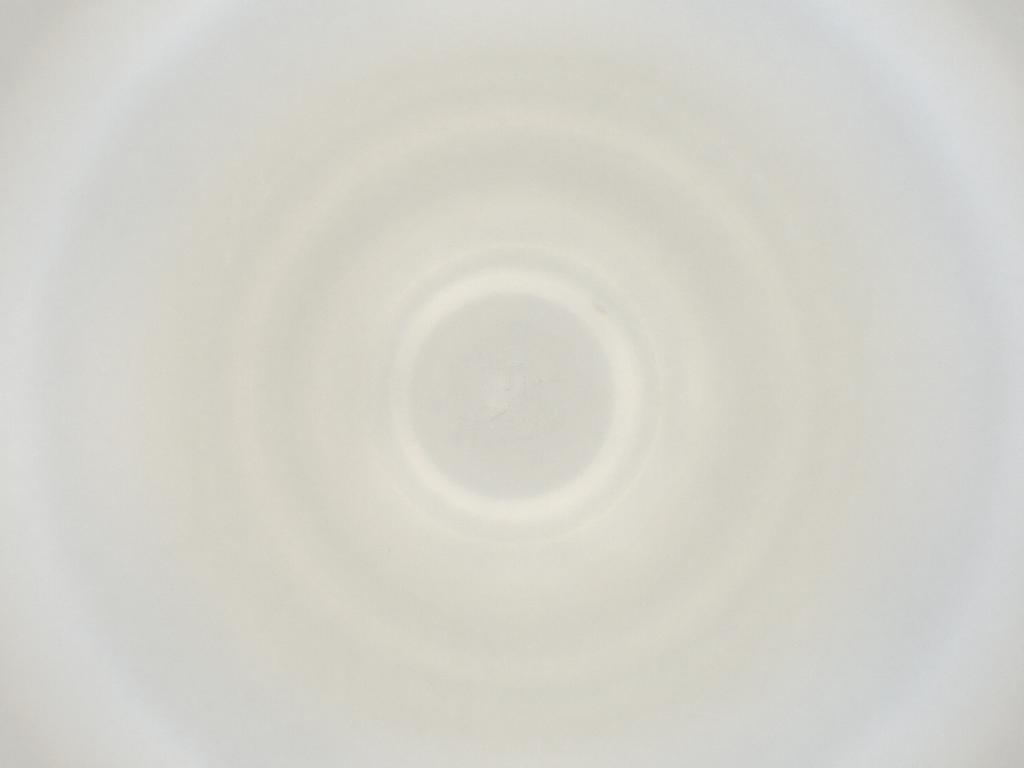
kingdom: Animalia
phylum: Arthropoda
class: Insecta
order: Diptera
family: Cecidomyiidae
